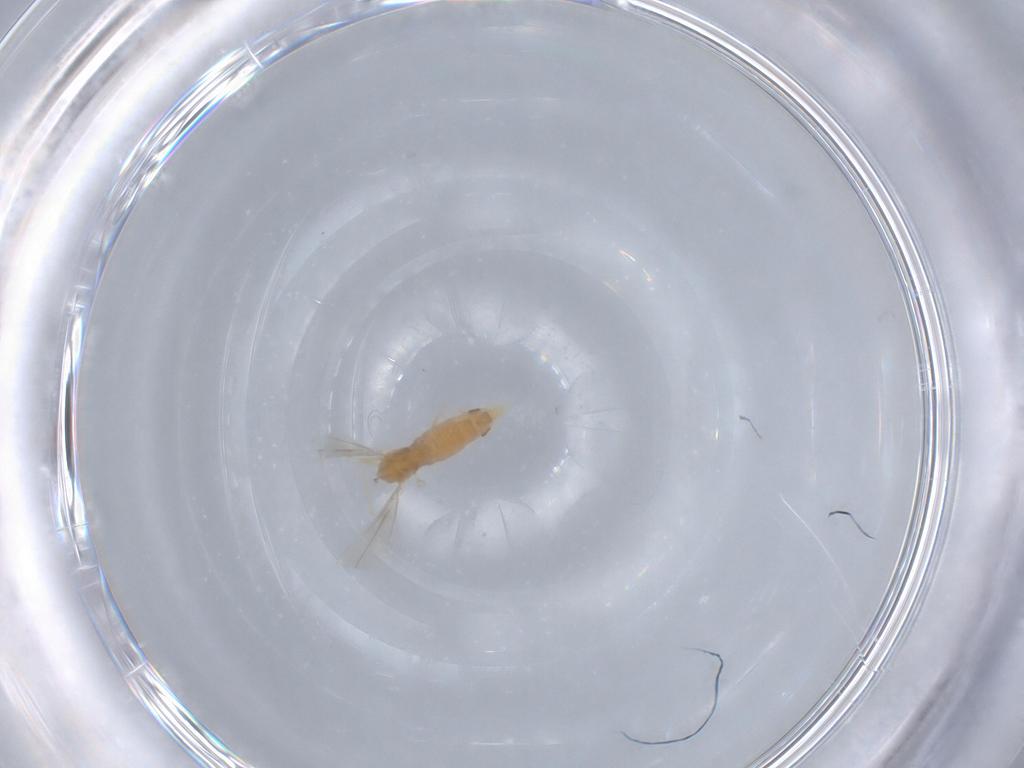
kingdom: Animalia
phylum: Arthropoda
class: Insecta
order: Diptera
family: Cecidomyiidae
